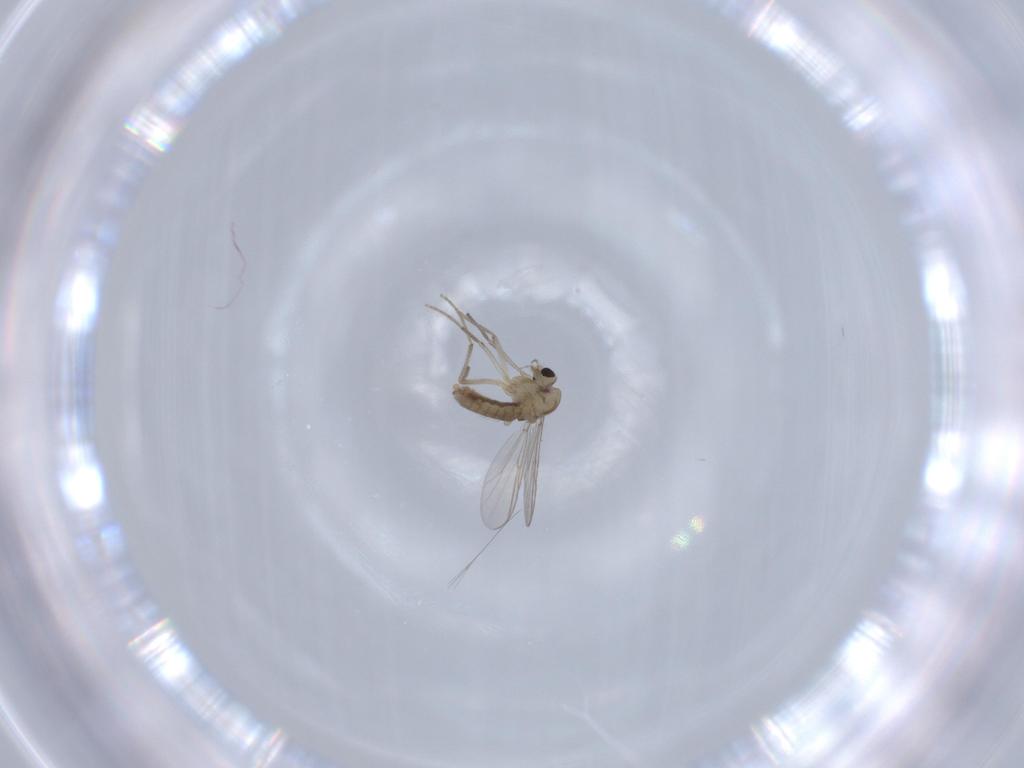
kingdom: Animalia
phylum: Arthropoda
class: Insecta
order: Diptera
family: Chironomidae
